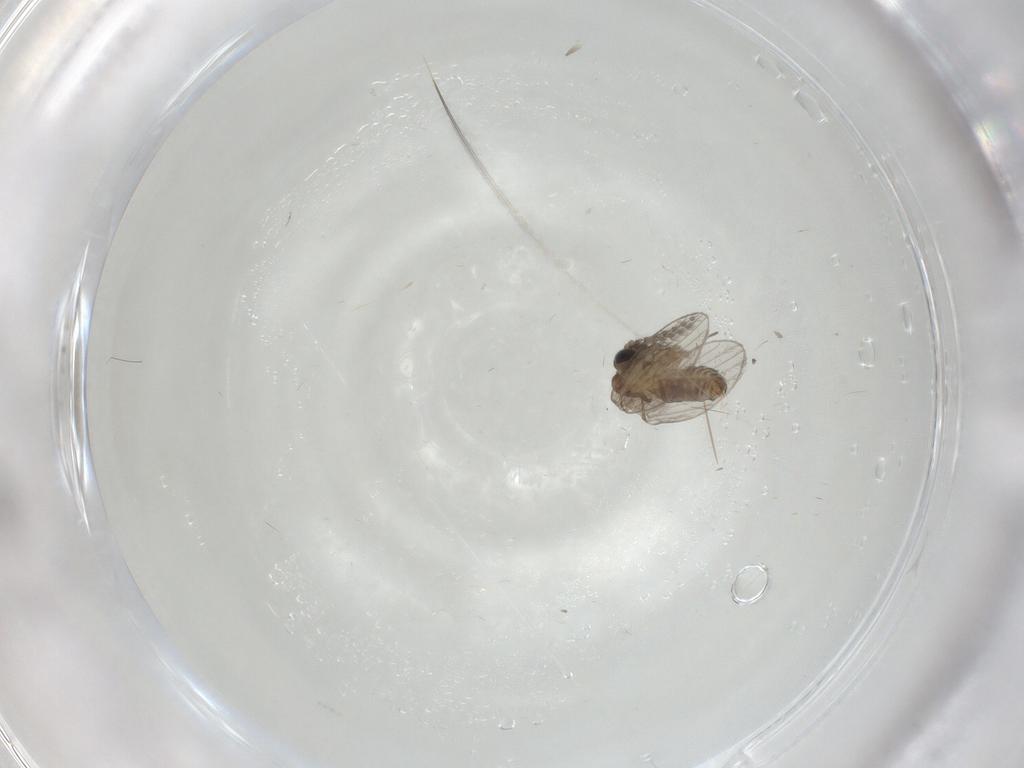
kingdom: Animalia
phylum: Arthropoda
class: Insecta
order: Diptera
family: Psychodidae
